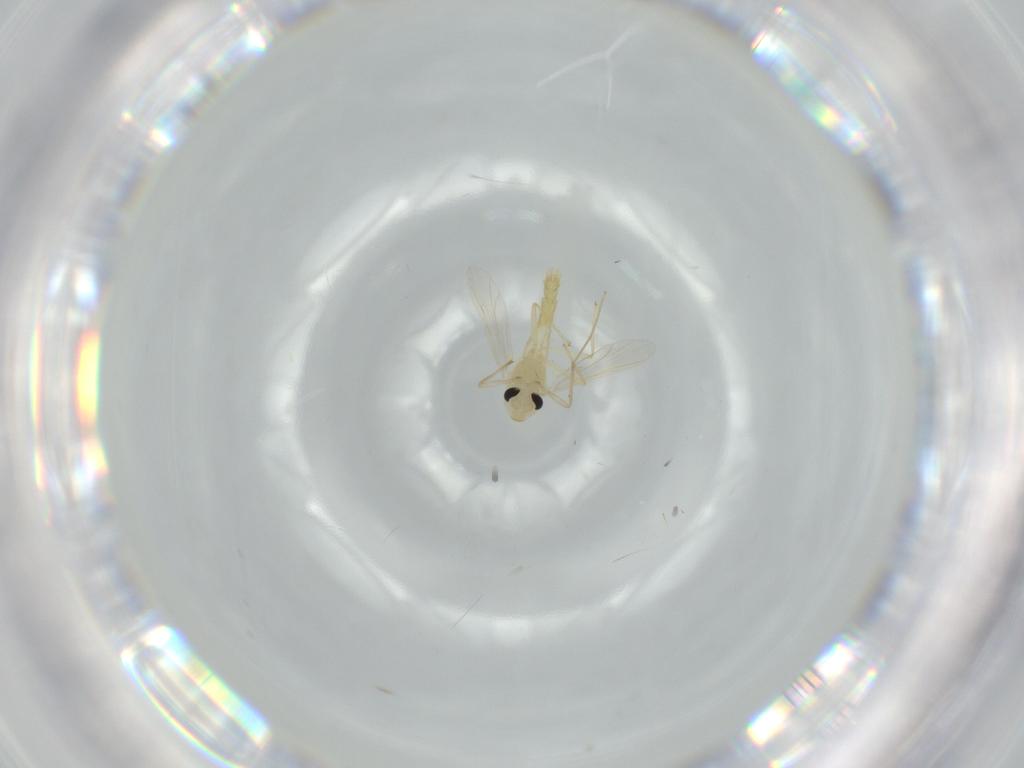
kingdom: Animalia
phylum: Arthropoda
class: Insecta
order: Diptera
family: Chironomidae
